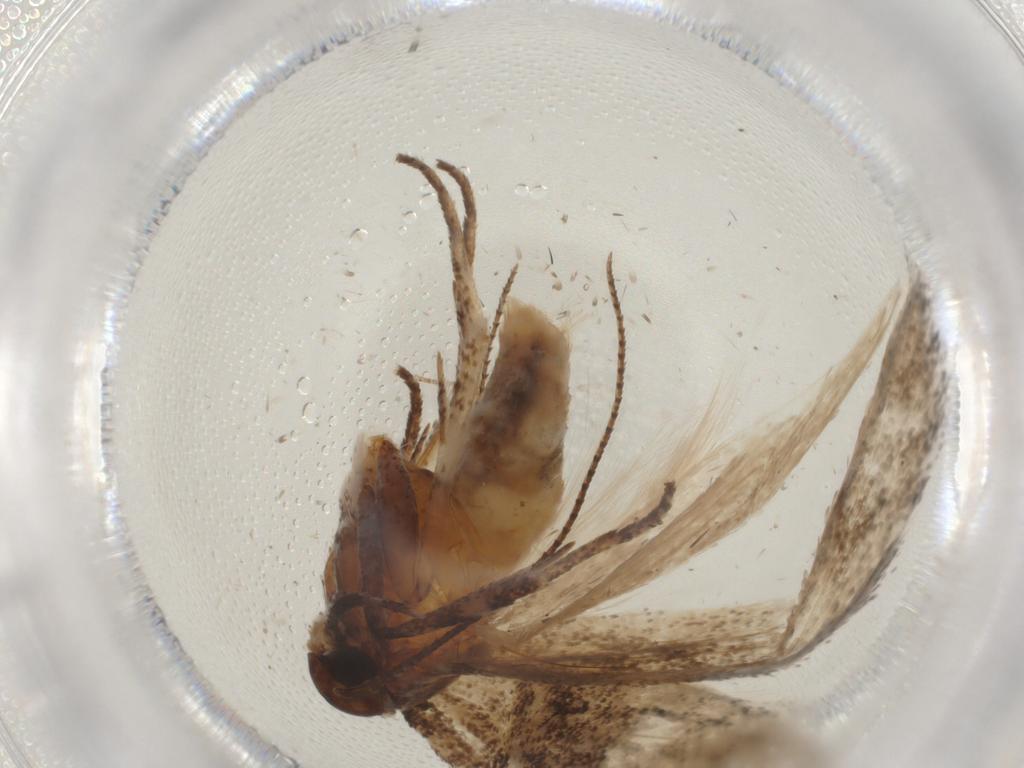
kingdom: Animalia
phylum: Arthropoda
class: Insecta
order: Lepidoptera
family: Cosmopterigidae
